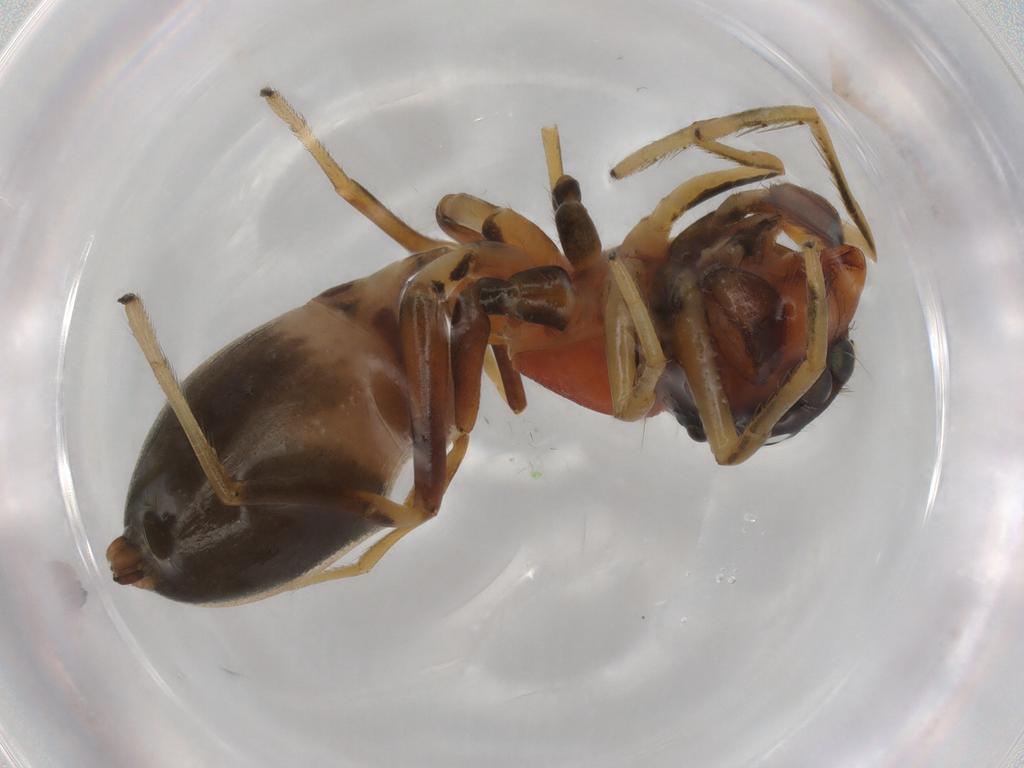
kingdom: Animalia
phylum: Arthropoda
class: Arachnida
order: Araneae
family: Salticidae
